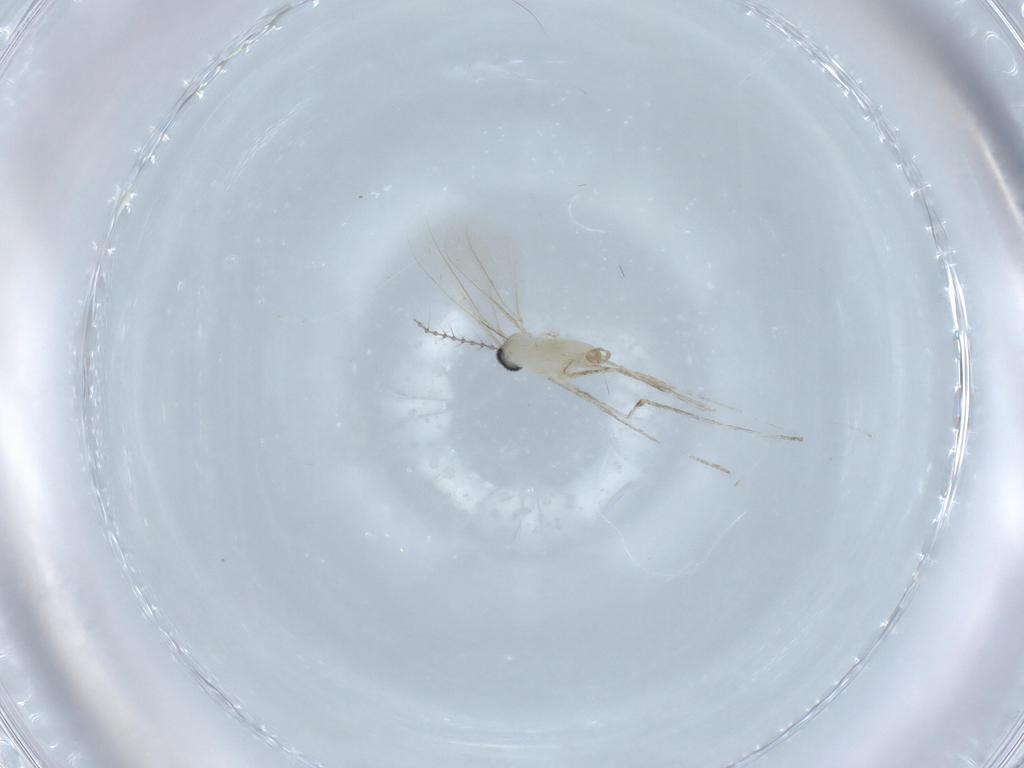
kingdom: Animalia
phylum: Arthropoda
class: Insecta
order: Diptera
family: Cecidomyiidae
